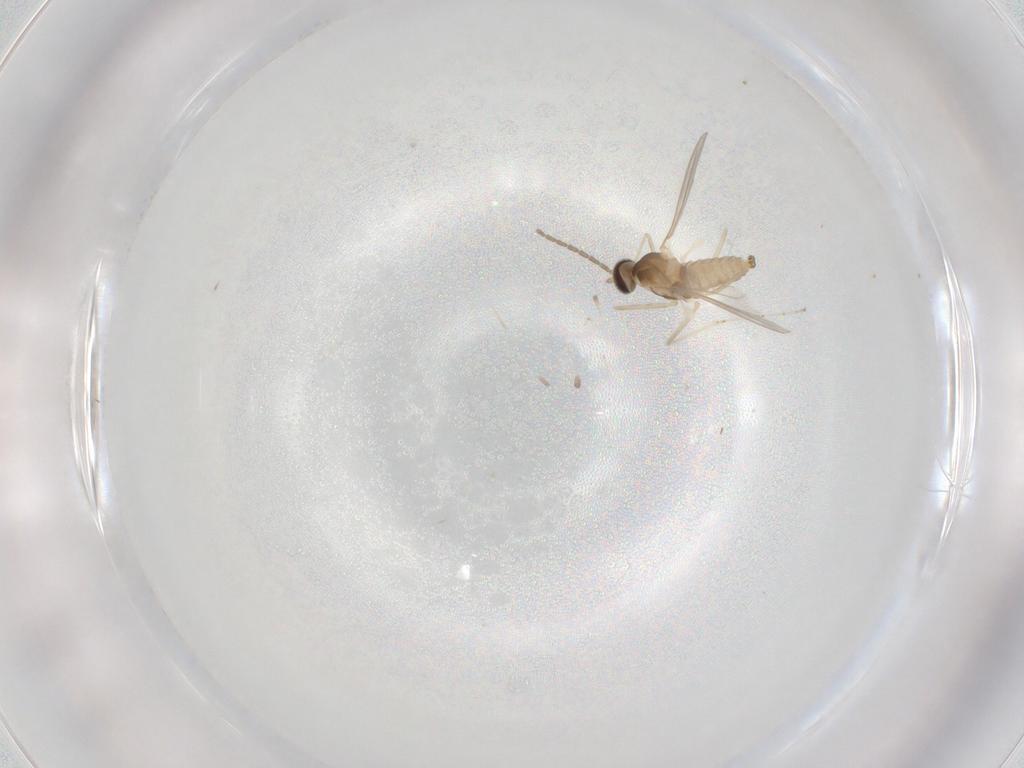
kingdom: Animalia
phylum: Arthropoda
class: Insecta
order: Diptera
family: Cecidomyiidae
